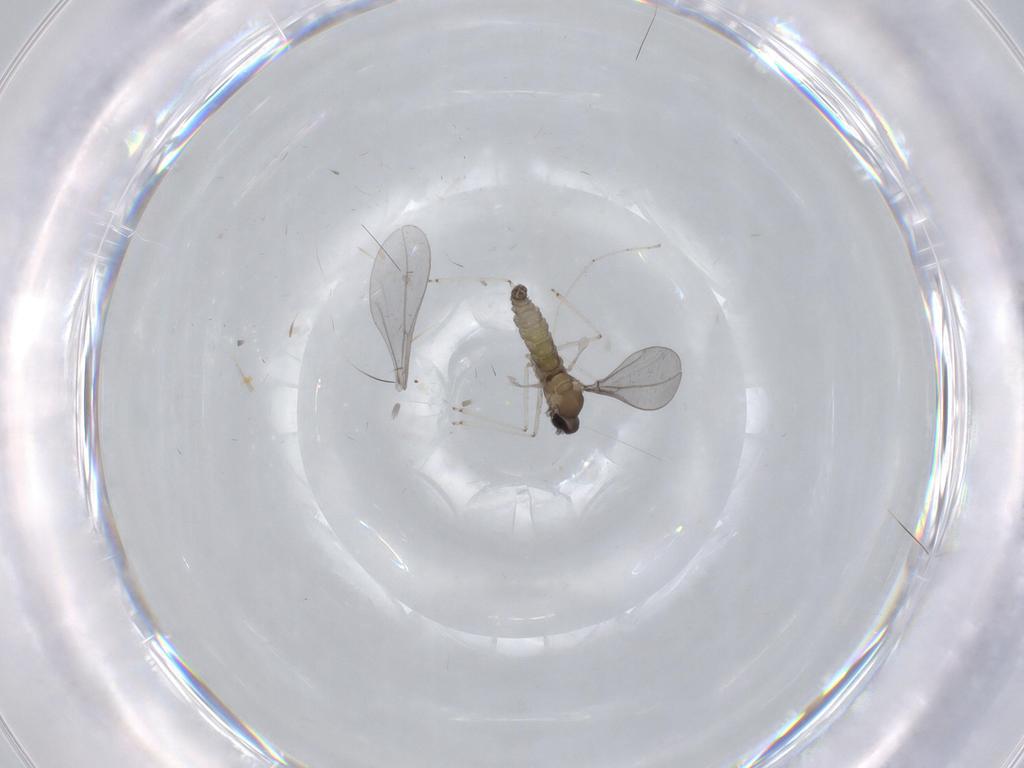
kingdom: Animalia
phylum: Arthropoda
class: Insecta
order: Diptera
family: Cecidomyiidae
